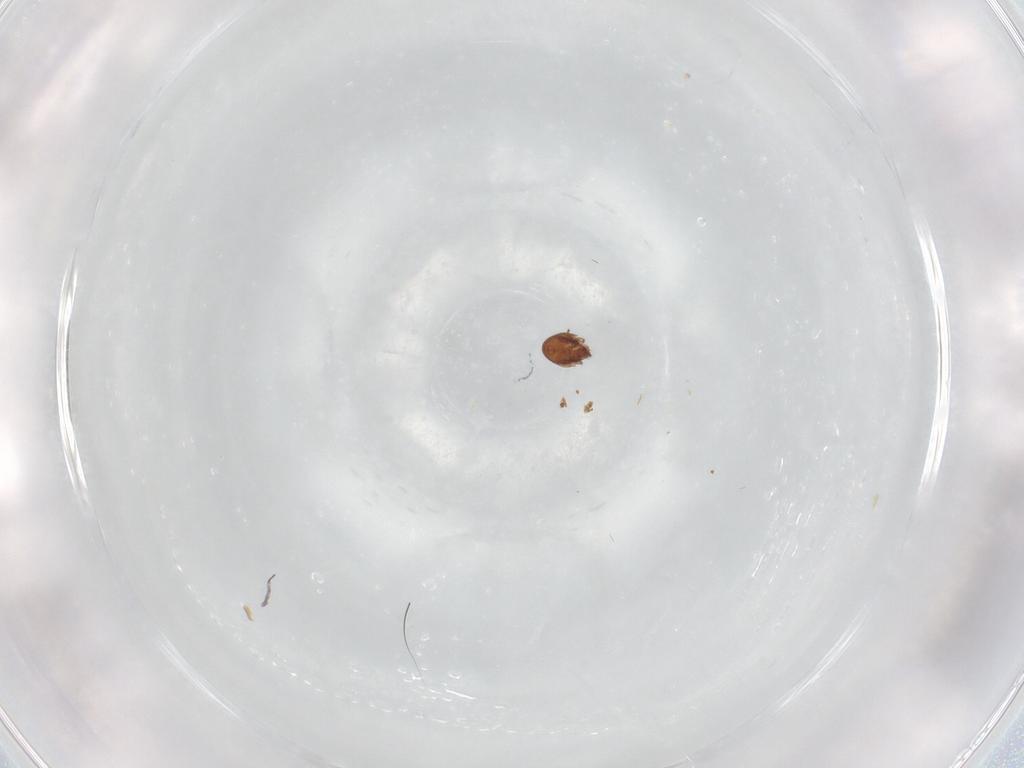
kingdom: Animalia
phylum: Arthropoda
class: Arachnida
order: Sarcoptiformes
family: Ceratozetidae
